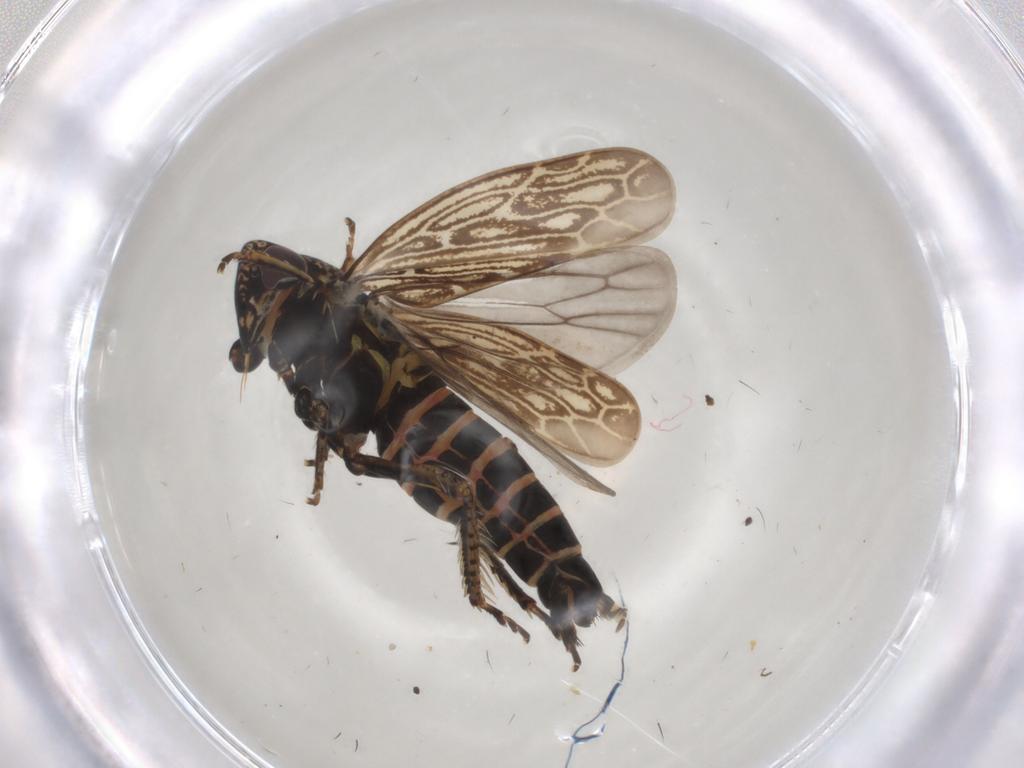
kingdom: Animalia
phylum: Arthropoda
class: Insecta
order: Hemiptera
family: Cicadellidae
